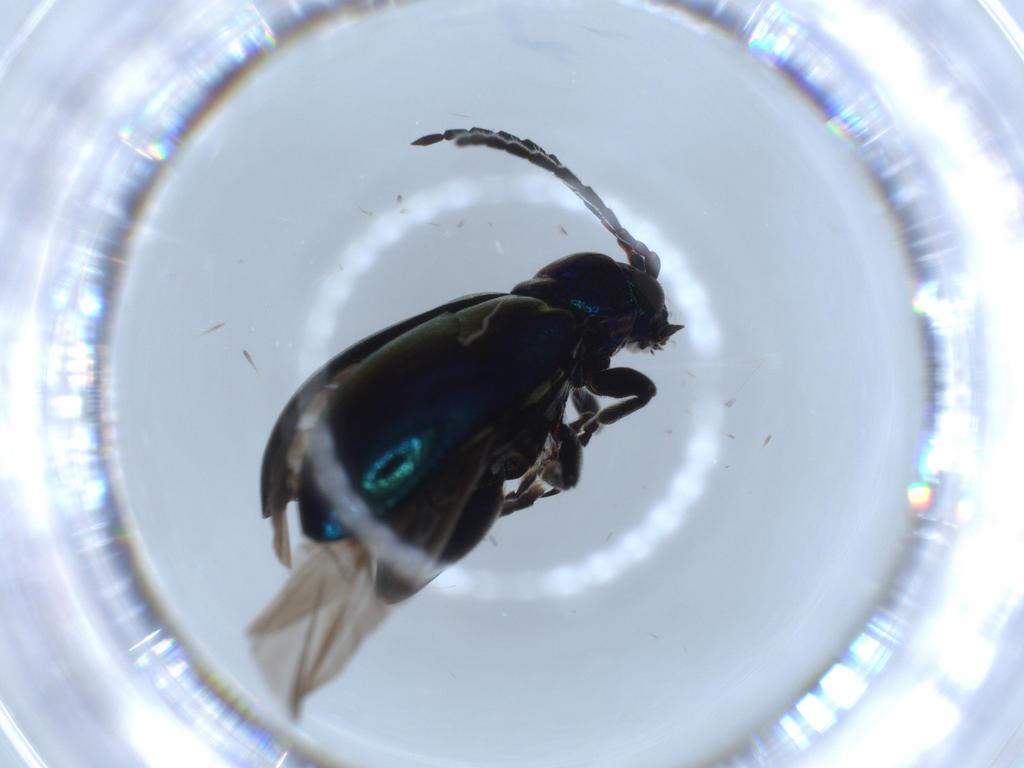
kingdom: Animalia
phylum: Arthropoda
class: Insecta
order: Coleoptera
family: Chrysomelidae
